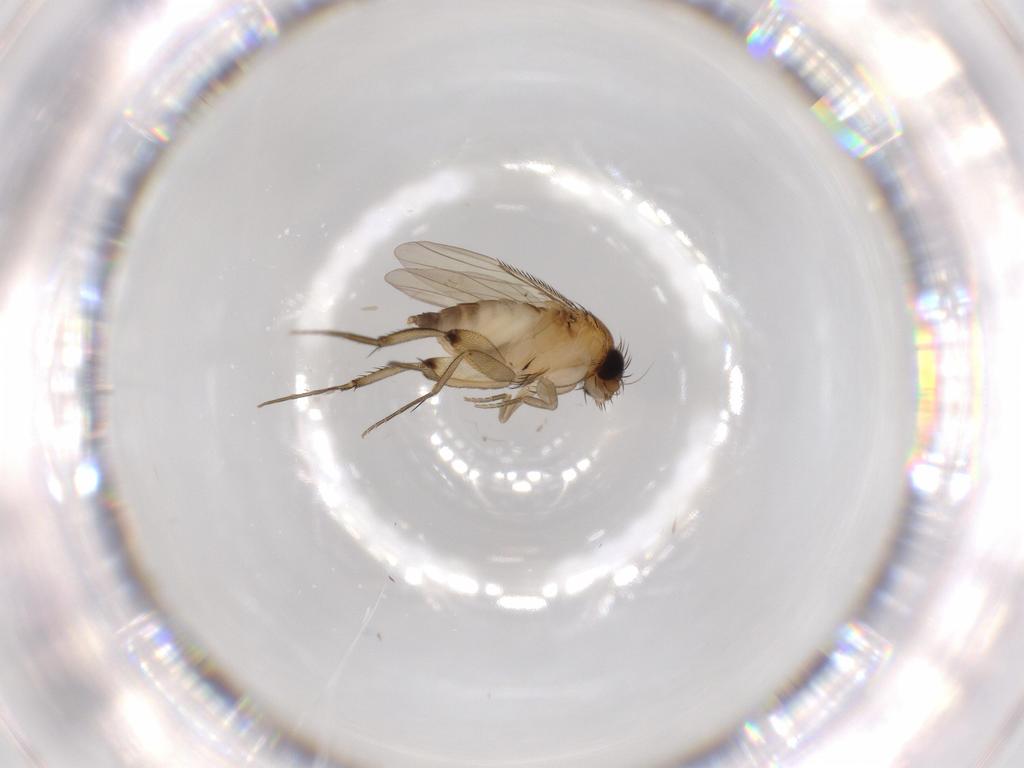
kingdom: Animalia
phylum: Arthropoda
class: Insecta
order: Diptera
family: Phoridae
